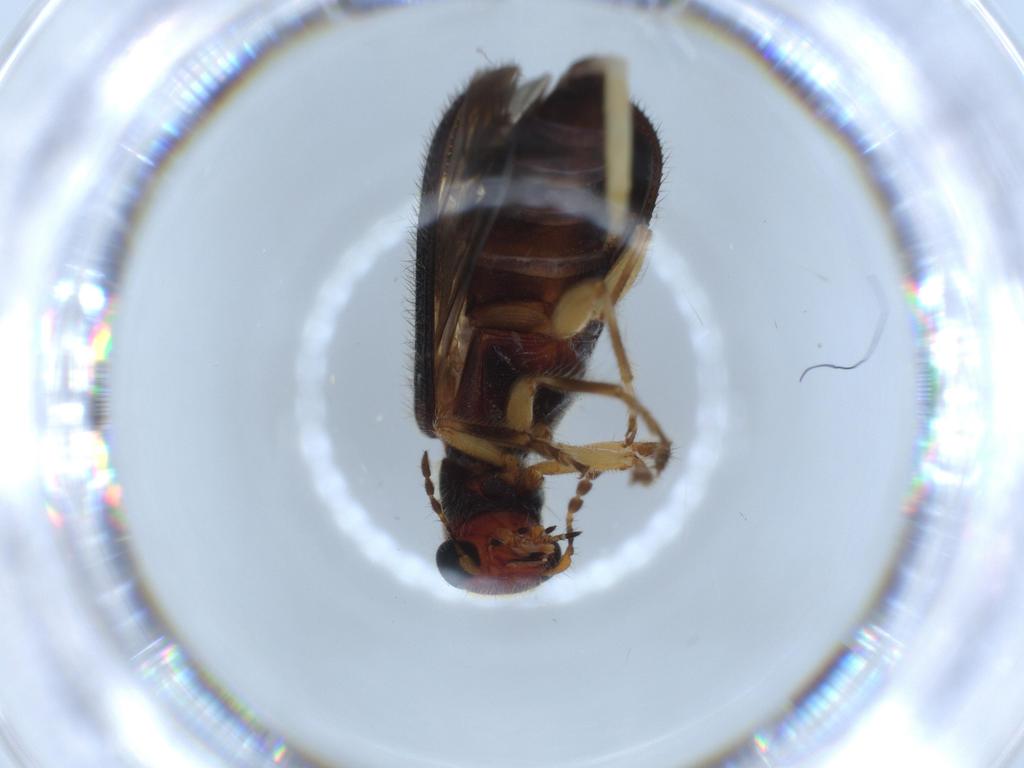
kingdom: Animalia
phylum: Arthropoda
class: Insecta
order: Coleoptera
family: Cleridae
